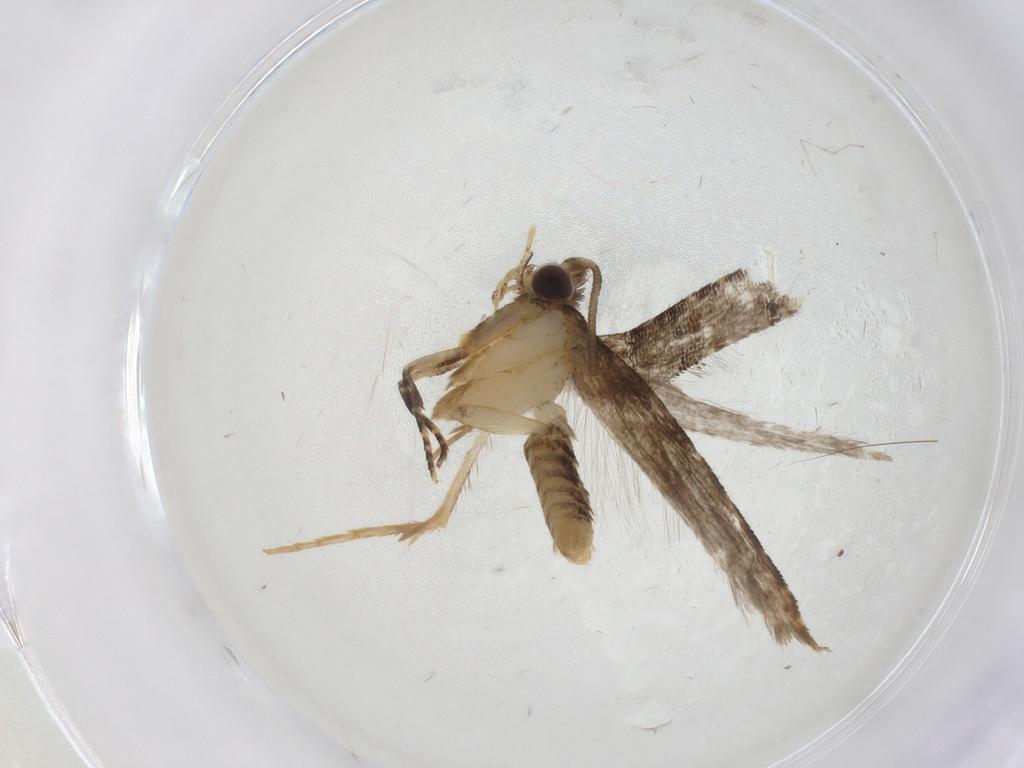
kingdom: Animalia
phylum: Arthropoda
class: Insecta
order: Lepidoptera
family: Tineidae
